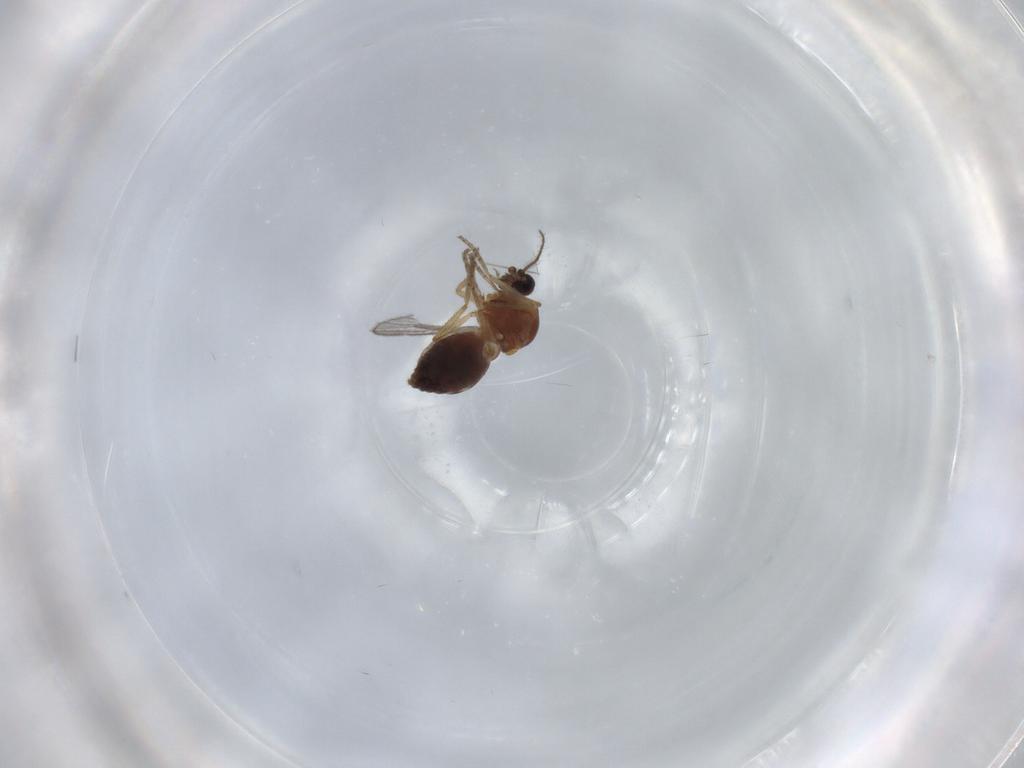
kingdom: Animalia
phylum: Arthropoda
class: Insecta
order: Diptera
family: Chironomidae
